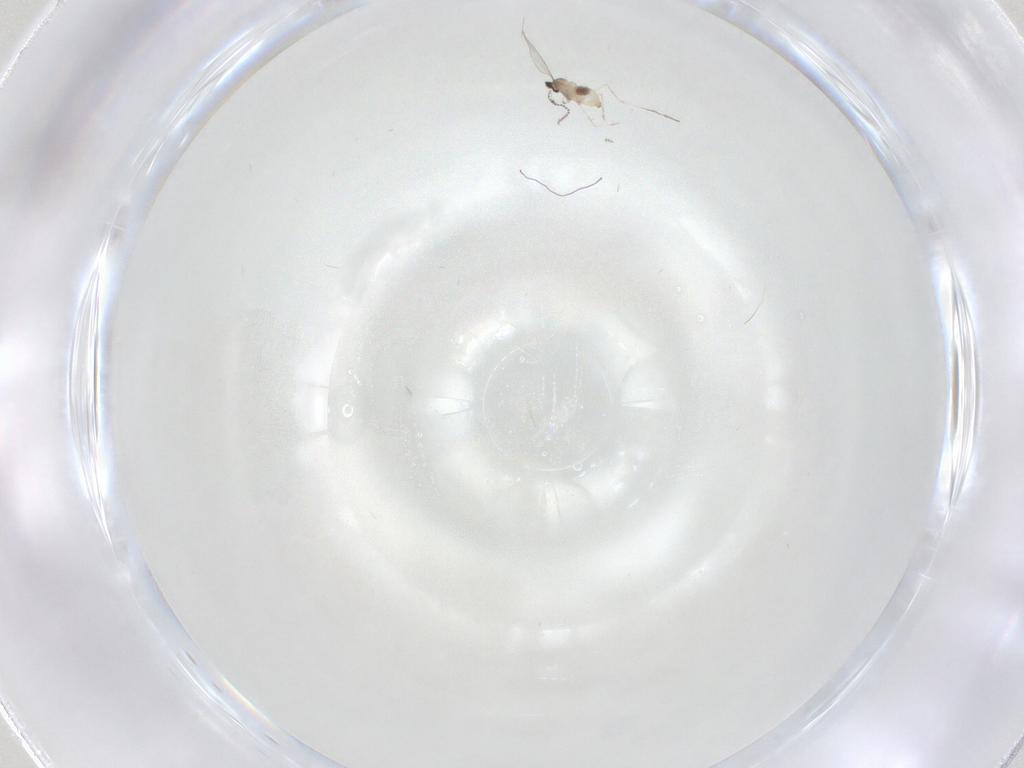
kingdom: Animalia
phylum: Arthropoda
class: Insecta
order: Diptera
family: Cecidomyiidae
